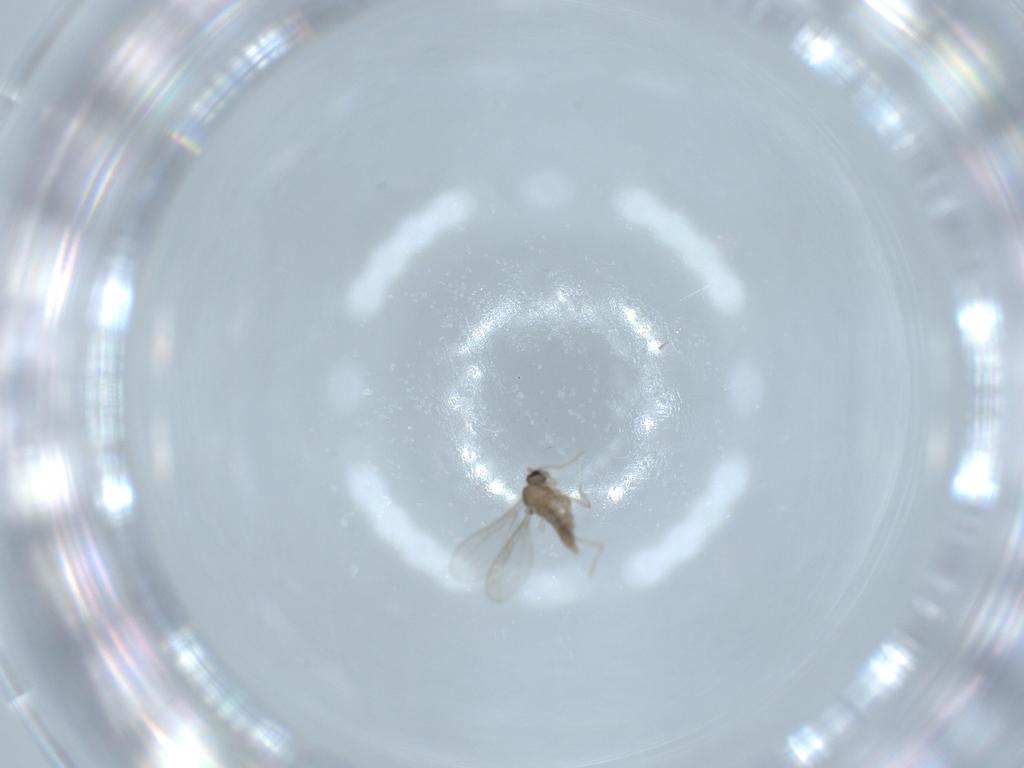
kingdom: Animalia
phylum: Arthropoda
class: Insecta
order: Diptera
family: Cecidomyiidae
